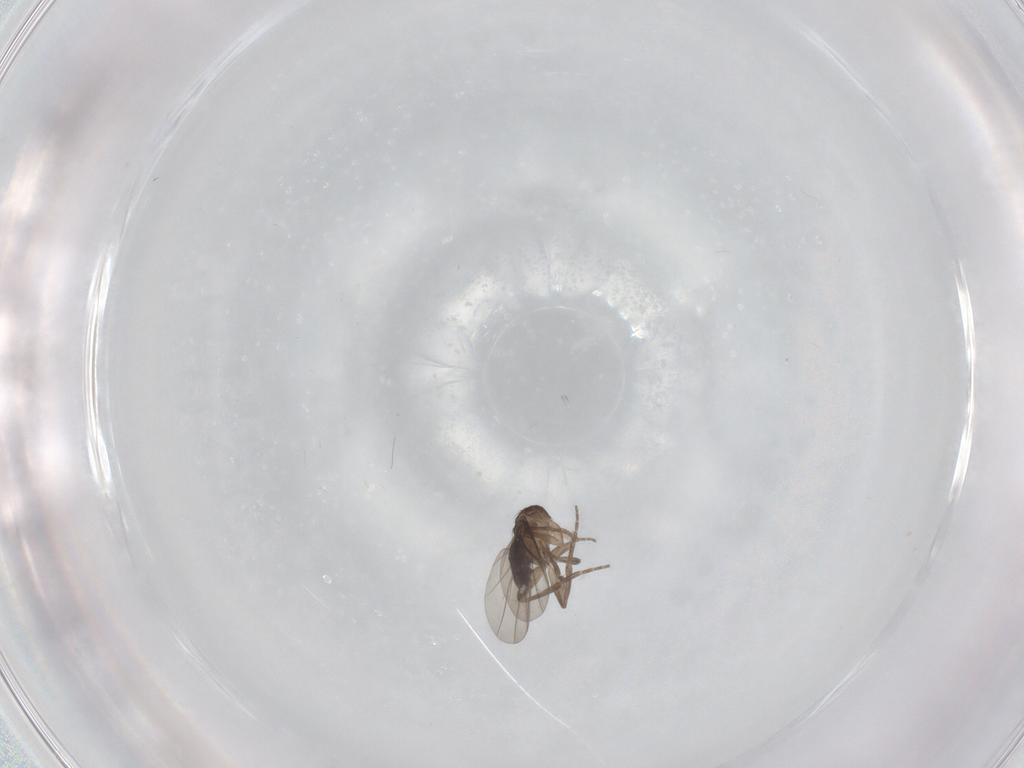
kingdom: Animalia
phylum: Arthropoda
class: Insecta
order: Diptera
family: Phoridae
